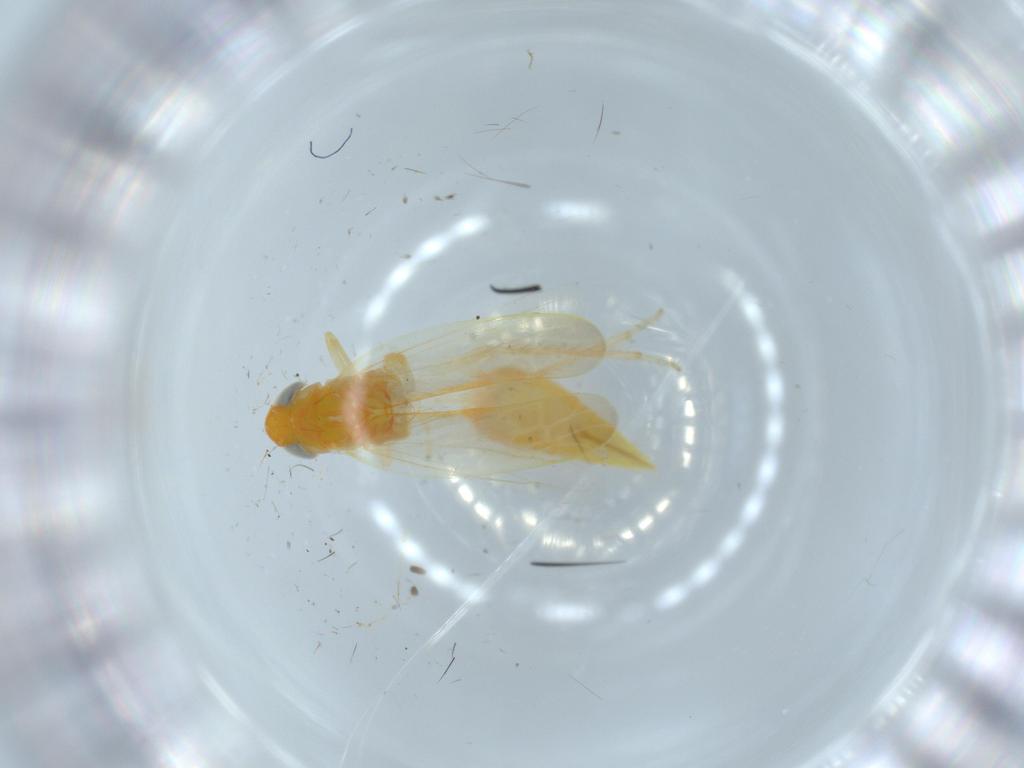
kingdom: Animalia
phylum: Arthropoda
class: Insecta
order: Hemiptera
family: Cicadellidae
